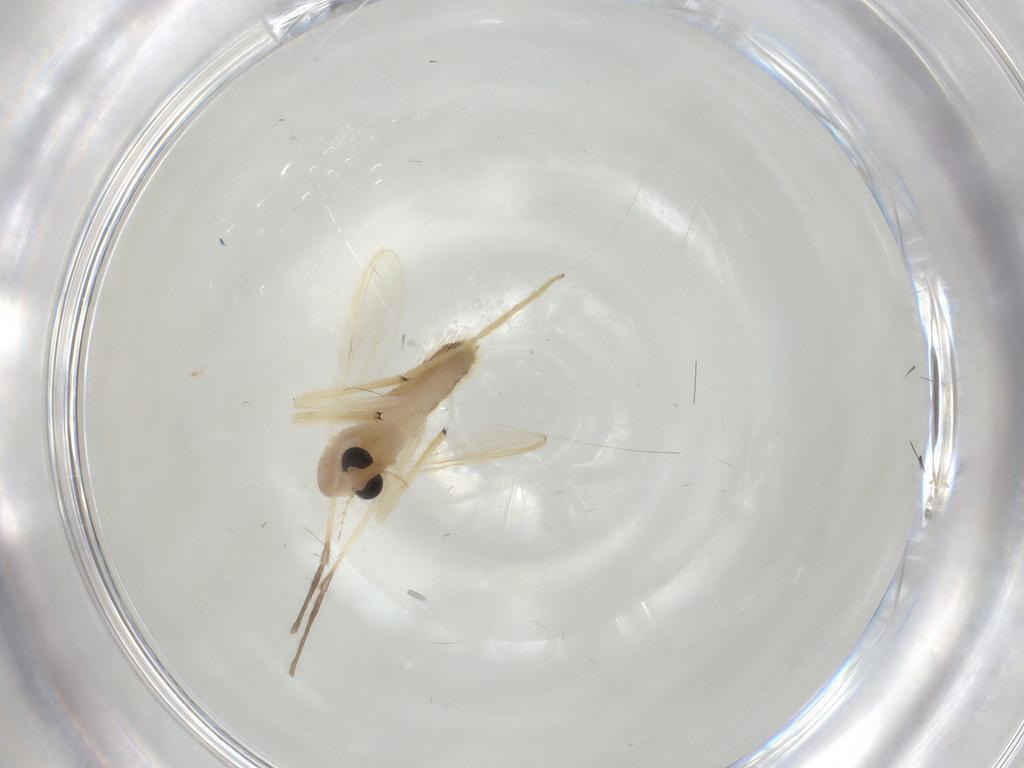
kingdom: Animalia
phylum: Arthropoda
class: Insecta
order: Diptera
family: Chironomidae
